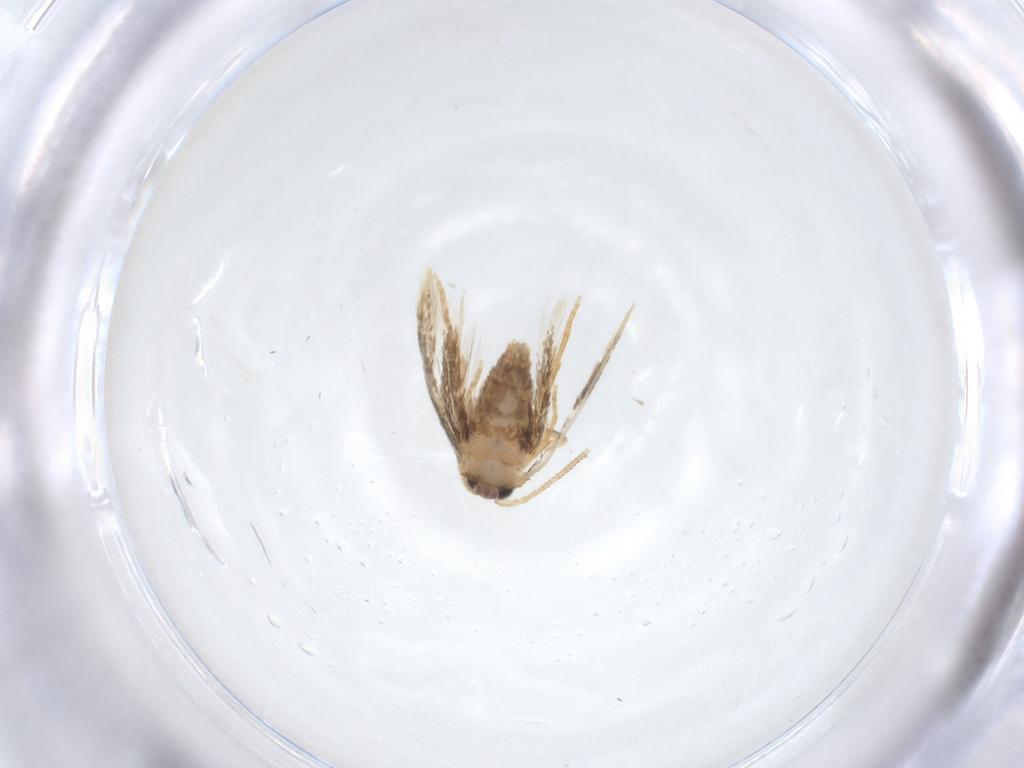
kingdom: Animalia
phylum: Arthropoda
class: Insecta
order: Lepidoptera
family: Nepticulidae
